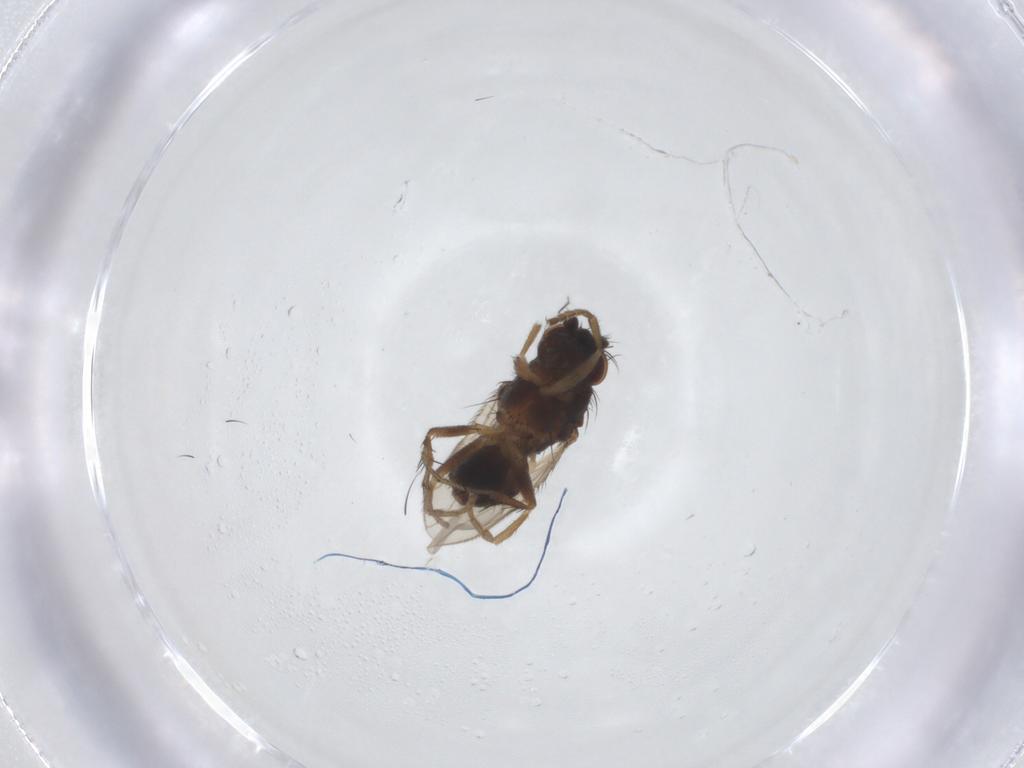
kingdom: Animalia
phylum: Arthropoda
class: Insecta
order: Diptera
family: Sphaeroceridae
